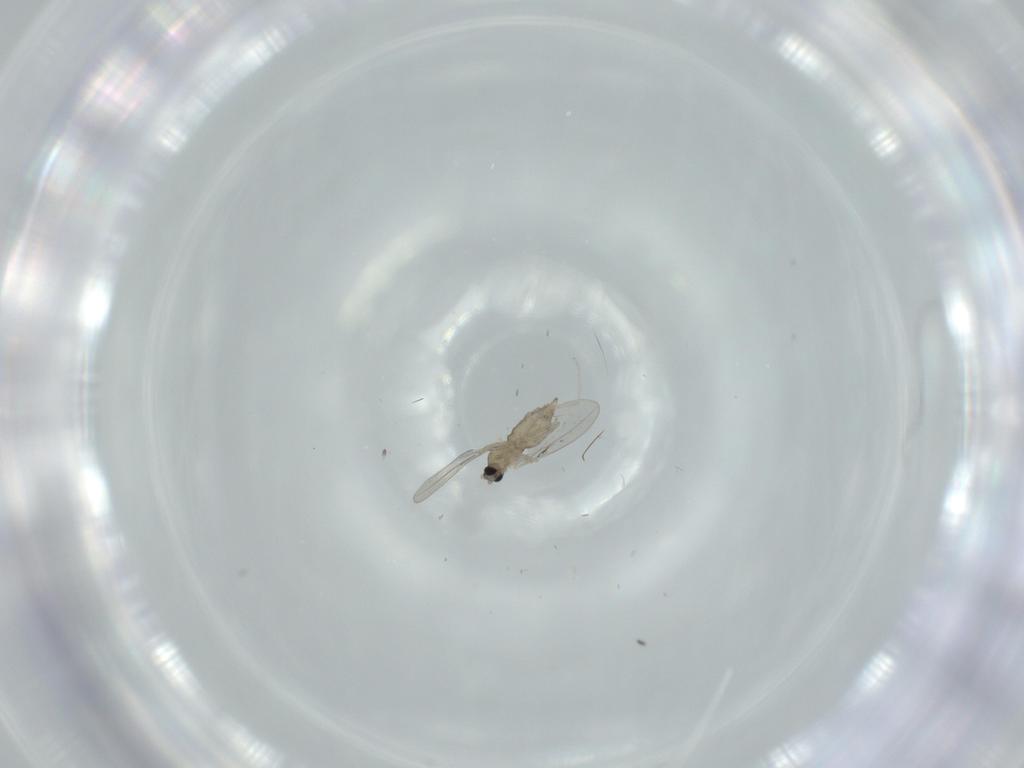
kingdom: Animalia
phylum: Arthropoda
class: Insecta
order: Diptera
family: Cecidomyiidae
